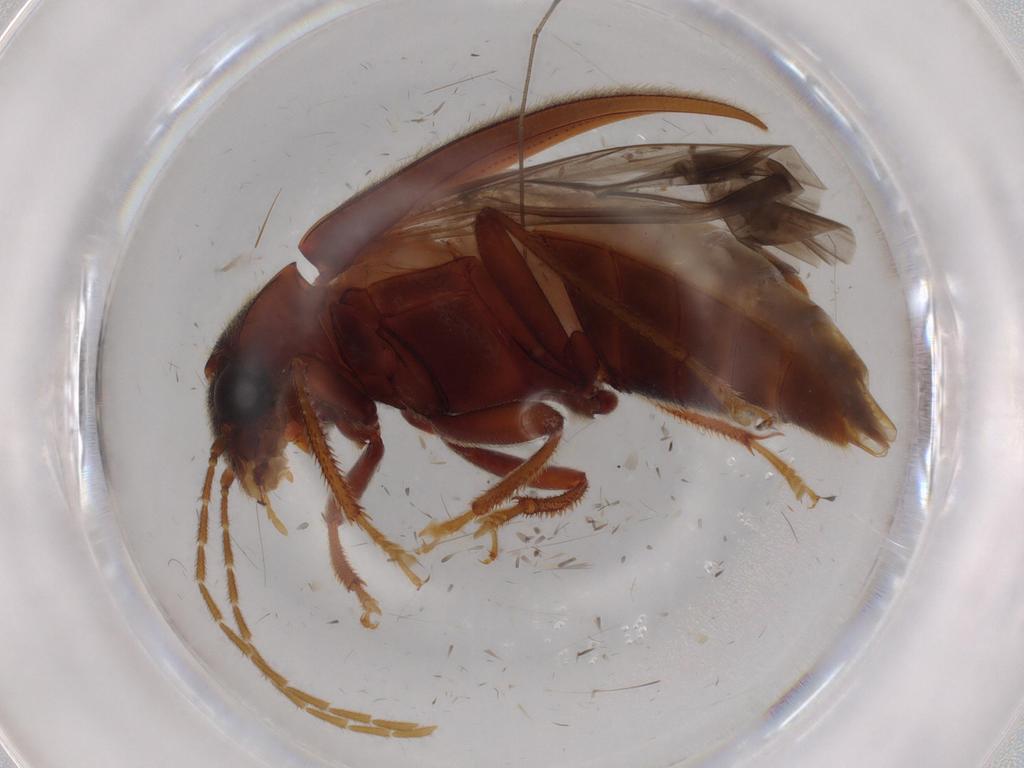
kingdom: Animalia
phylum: Arthropoda
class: Insecta
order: Coleoptera
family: Ptilodactylidae
